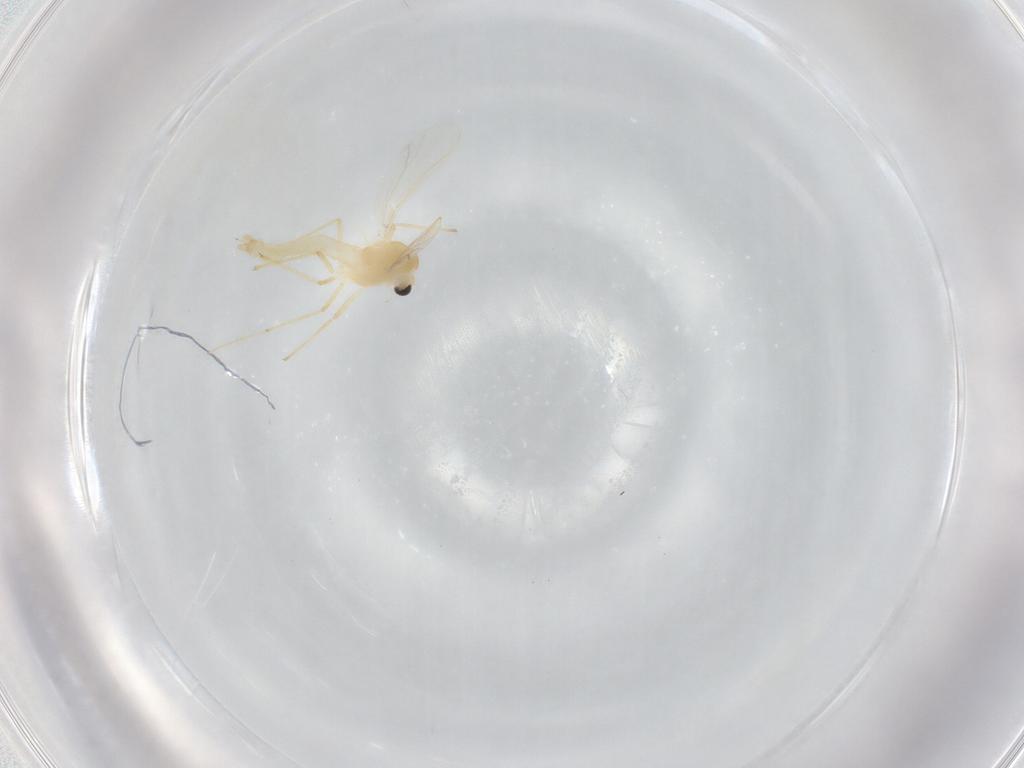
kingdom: Animalia
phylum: Arthropoda
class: Insecta
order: Diptera
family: Chironomidae
